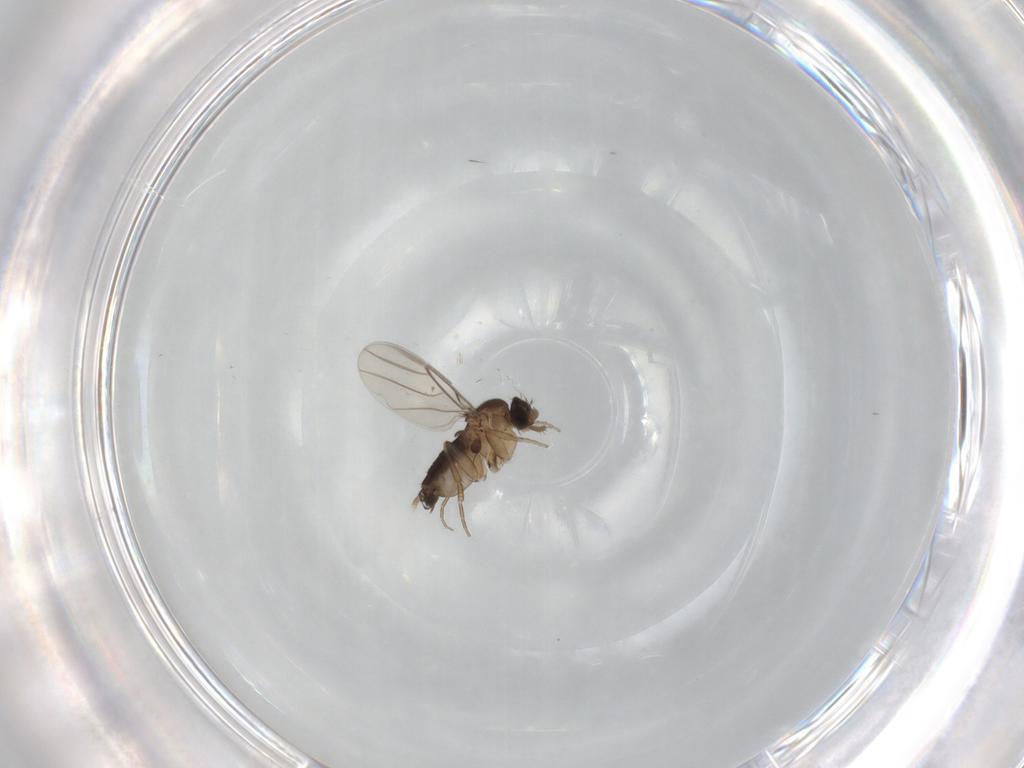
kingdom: Animalia
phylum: Arthropoda
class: Insecta
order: Diptera
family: Phoridae
